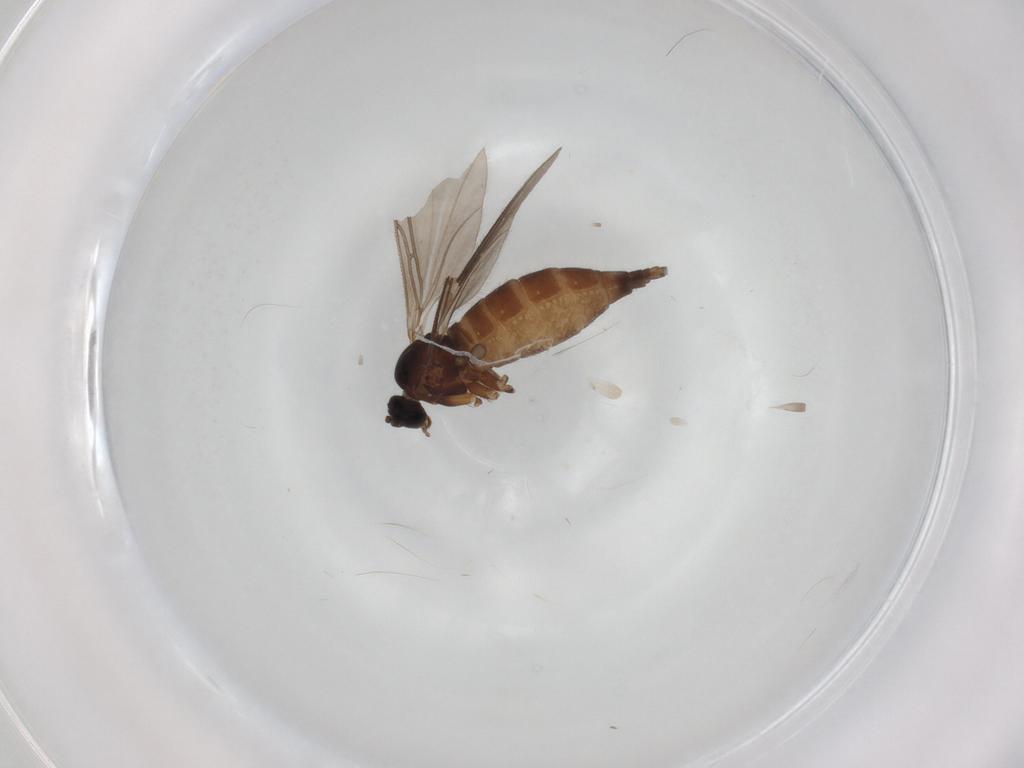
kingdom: Animalia
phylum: Arthropoda
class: Insecta
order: Diptera
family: Sciaridae
